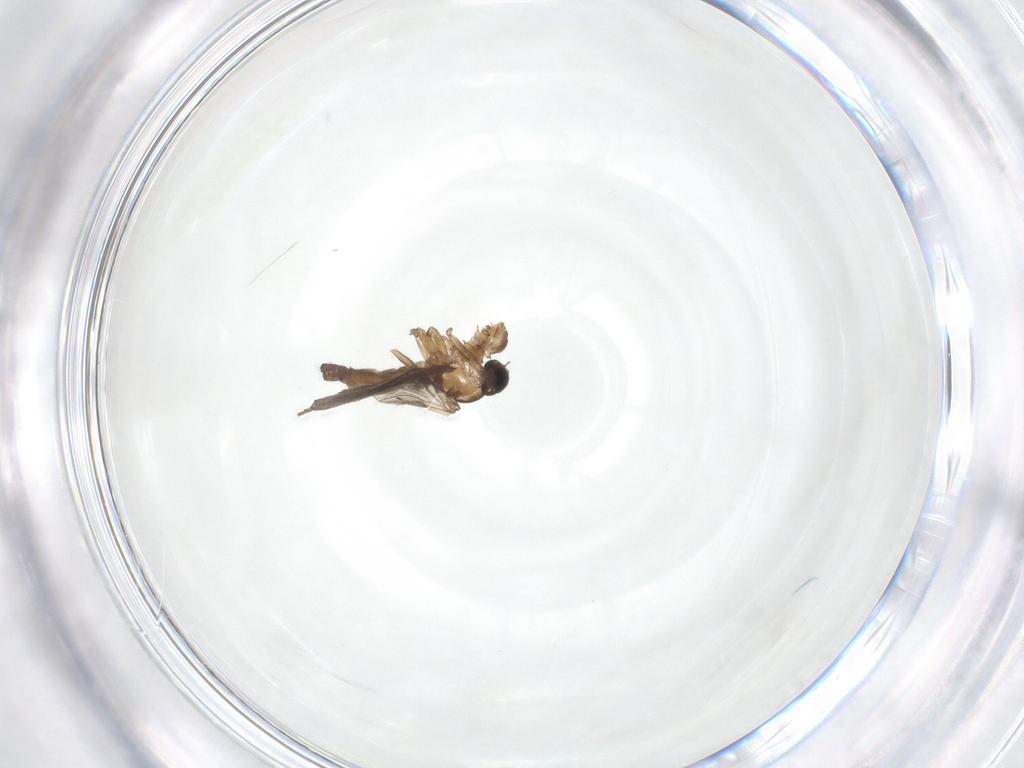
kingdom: Animalia
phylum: Arthropoda
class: Insecta
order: Diptera
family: Culicidae
